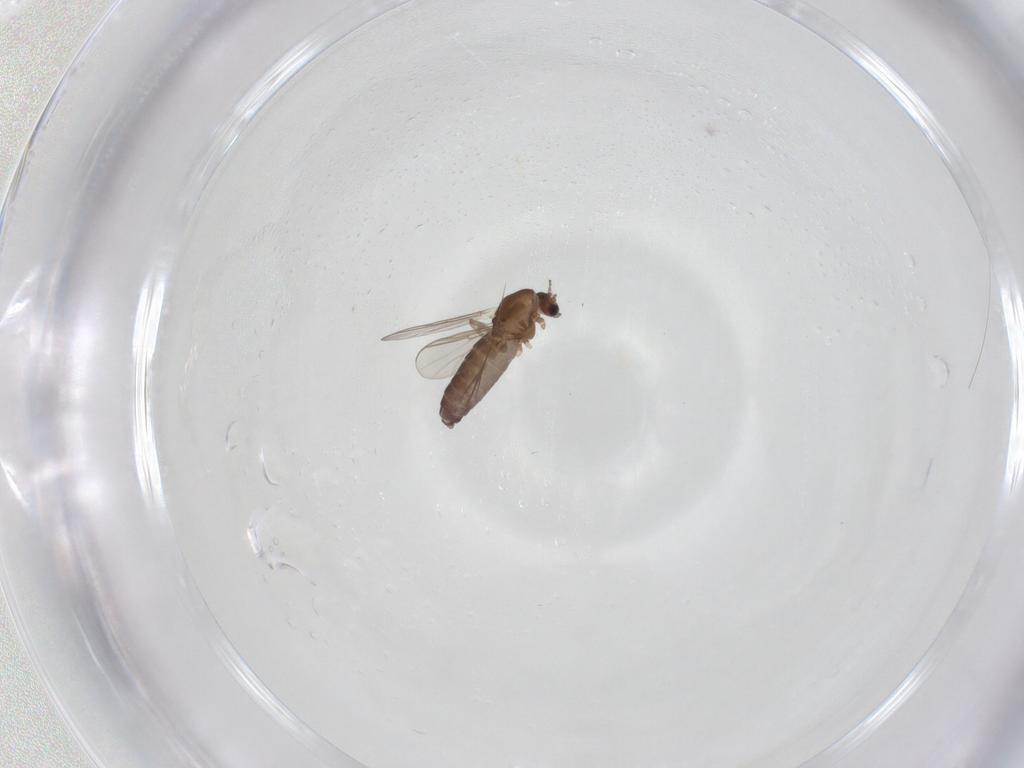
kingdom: Animalia
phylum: Arthropoda
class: Insecta
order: Diptera
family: Chironomidae
